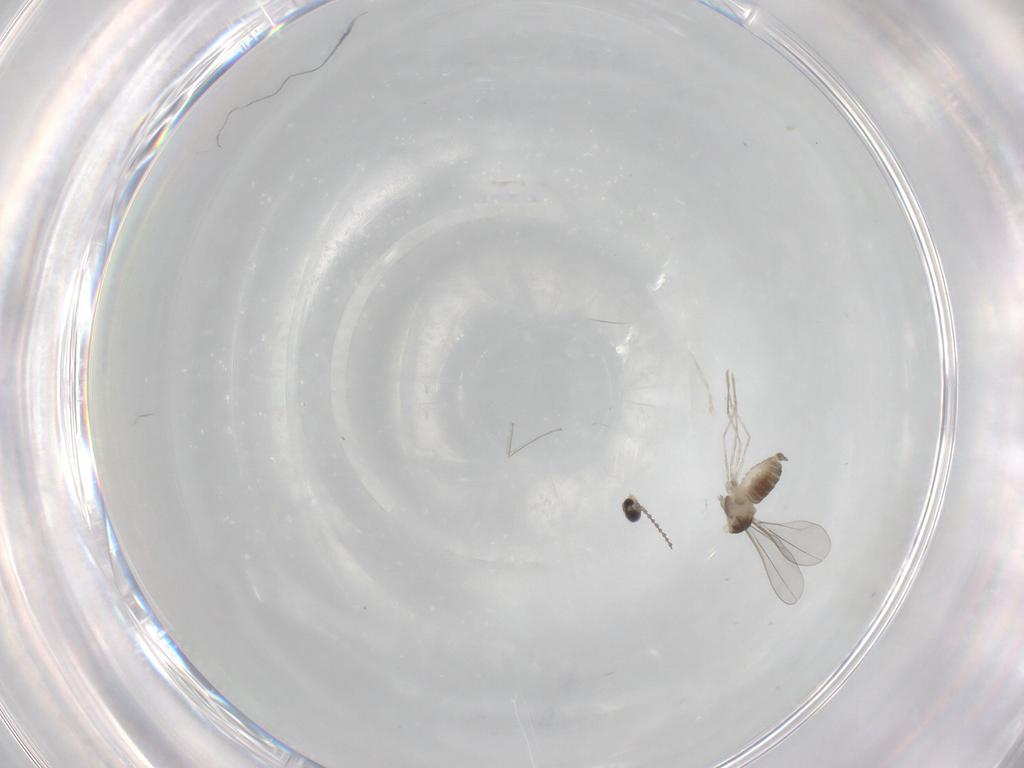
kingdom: Animalia
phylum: Arthropoda
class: Insecta
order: Diptera
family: Cecidomyiidae
